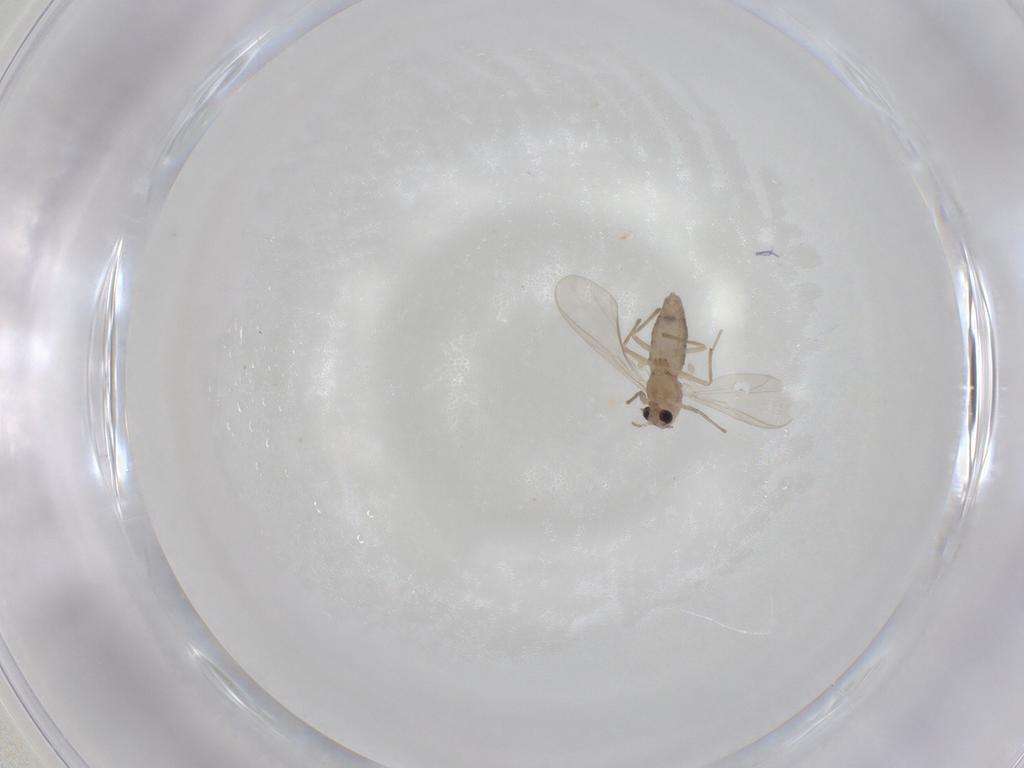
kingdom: Animalia
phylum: Arthropoda
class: Insecta
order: Diptera
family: Chironomidae
